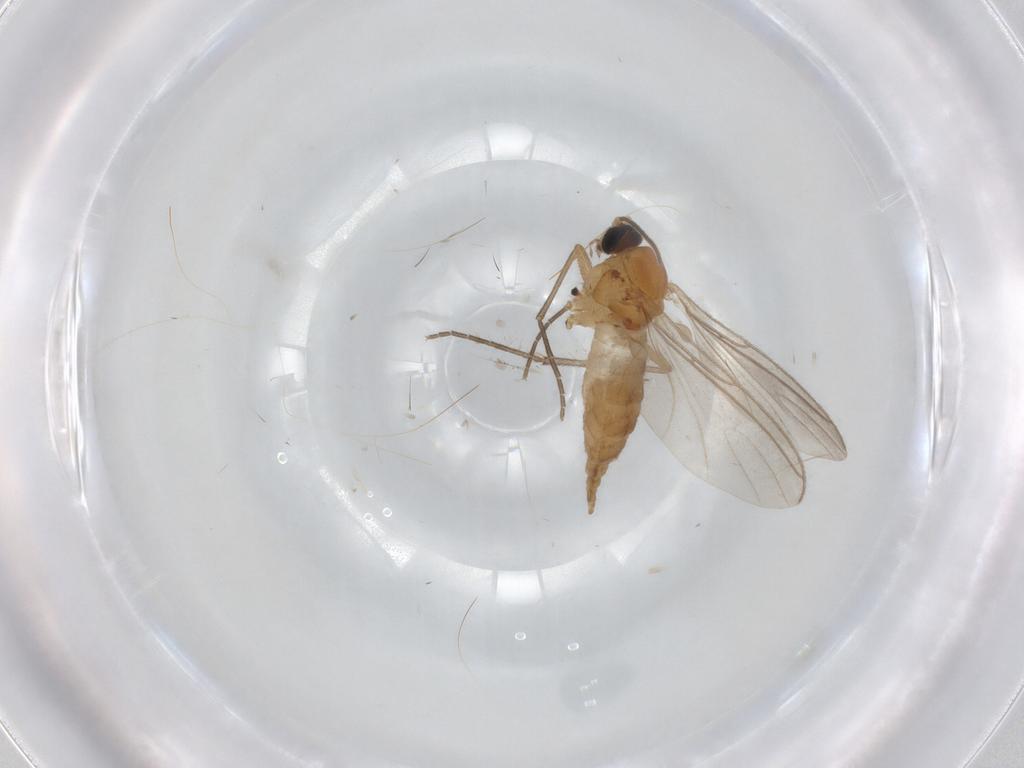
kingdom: Animalia
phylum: Arthropoda
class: Insecta
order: Diptera
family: Sciaridae
